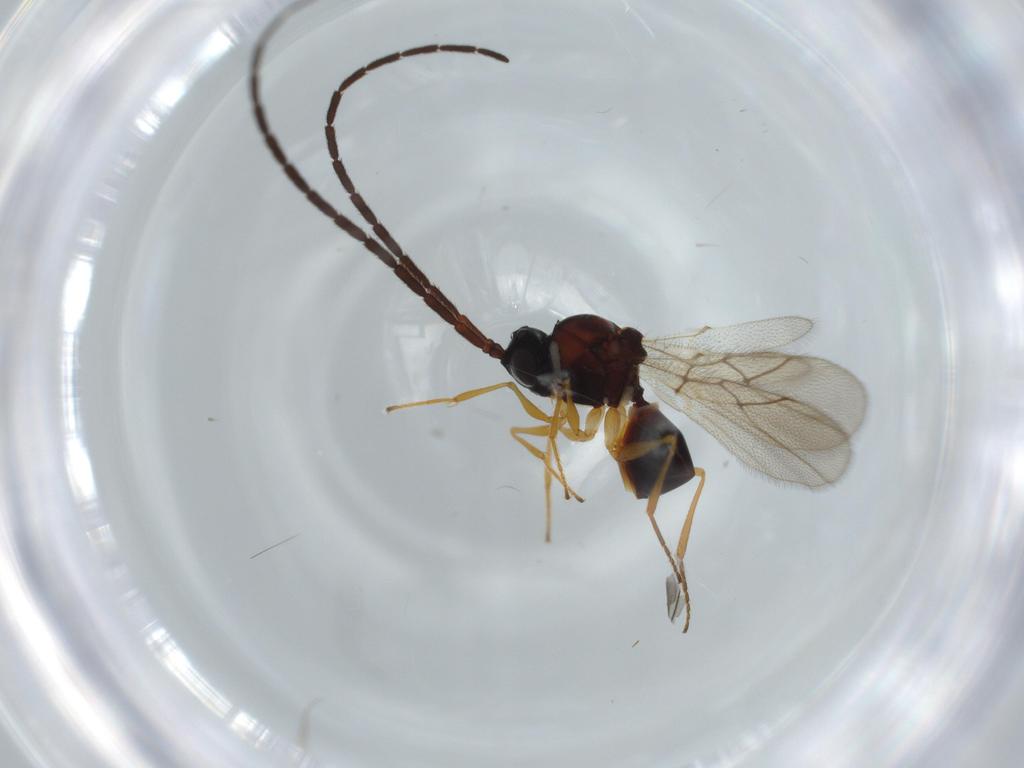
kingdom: Animalia
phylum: Arthropoda
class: Insecta
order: Hymenoptera
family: Figitidae
